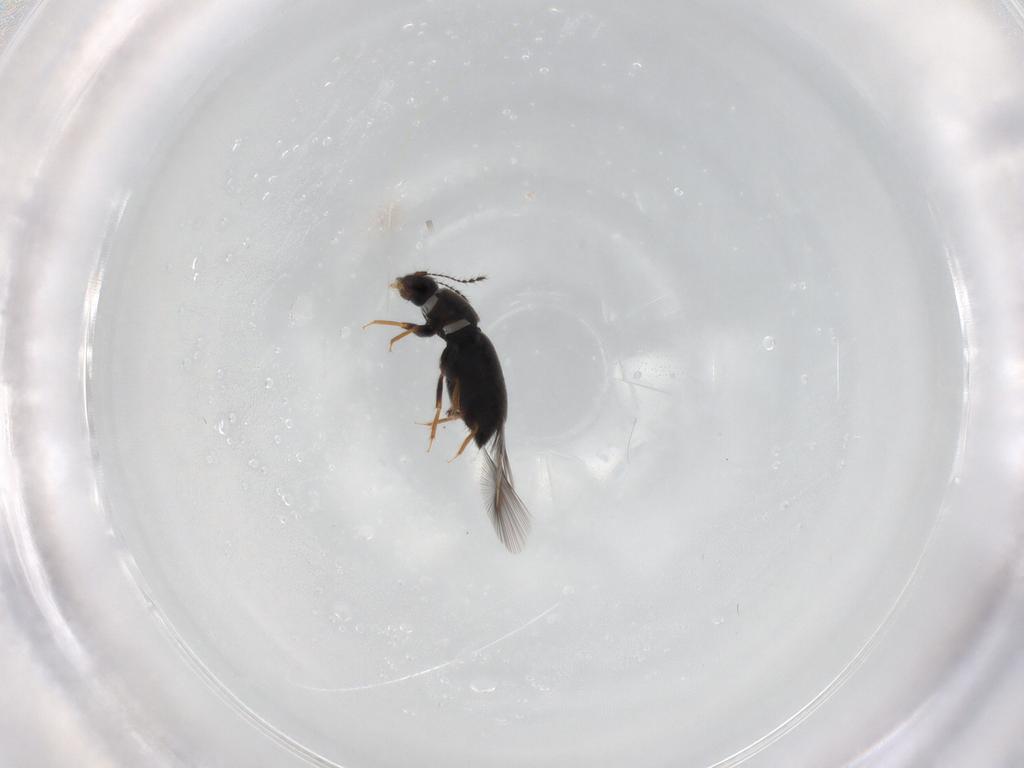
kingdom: Animalia
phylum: Arthropoda
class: Insecta
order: Coleoptera
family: Ptiliidae
